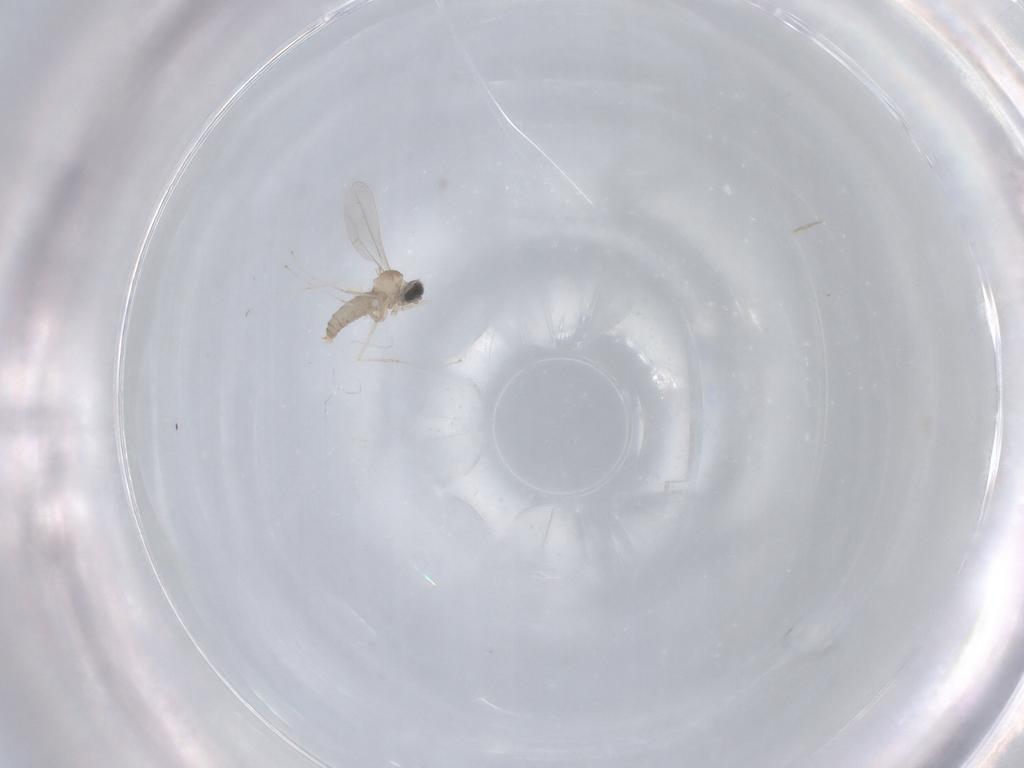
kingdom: Animalia
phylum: Arthropoda
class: Insecta
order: Diptera
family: Cecidomyiidae
